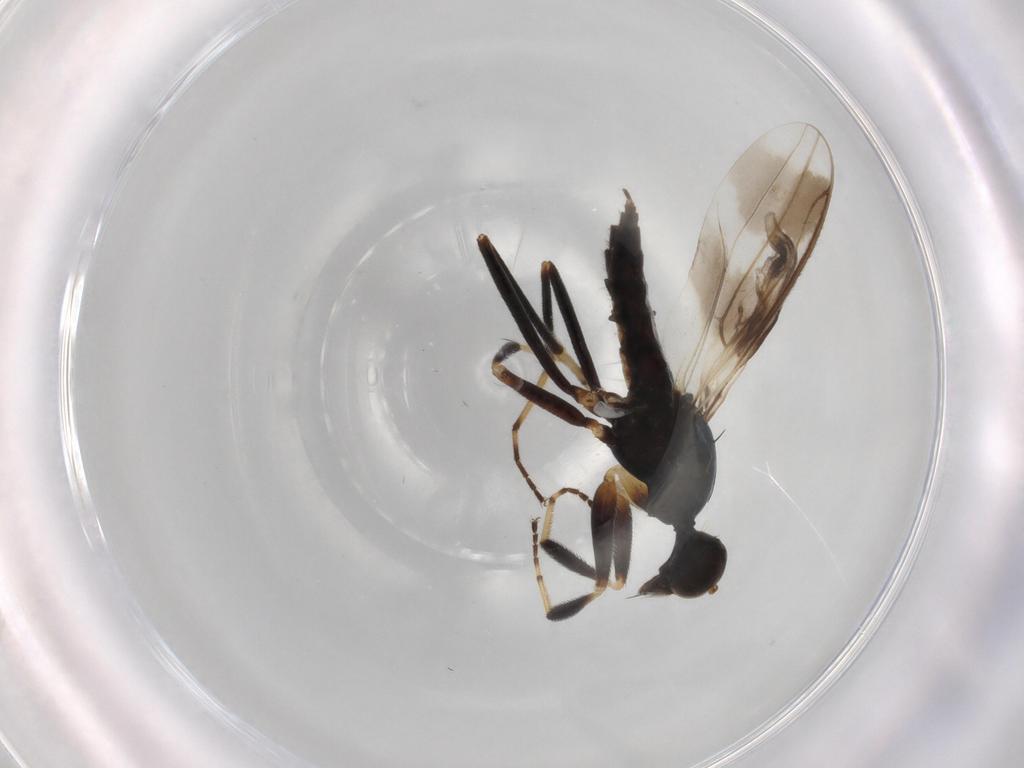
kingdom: Animalia
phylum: Arthropoda
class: Insecta
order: Diptera
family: Hybotidae
